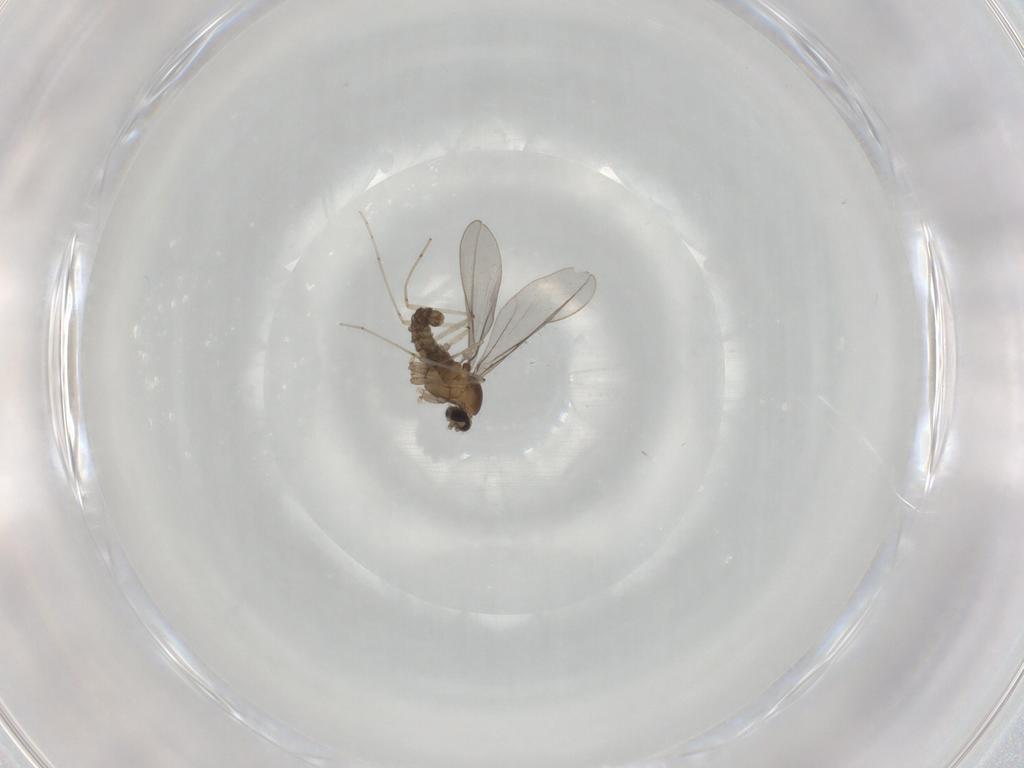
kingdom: Animalia
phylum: Arthropoda
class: Insecta
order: Diptera
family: Cecidomyiidae
